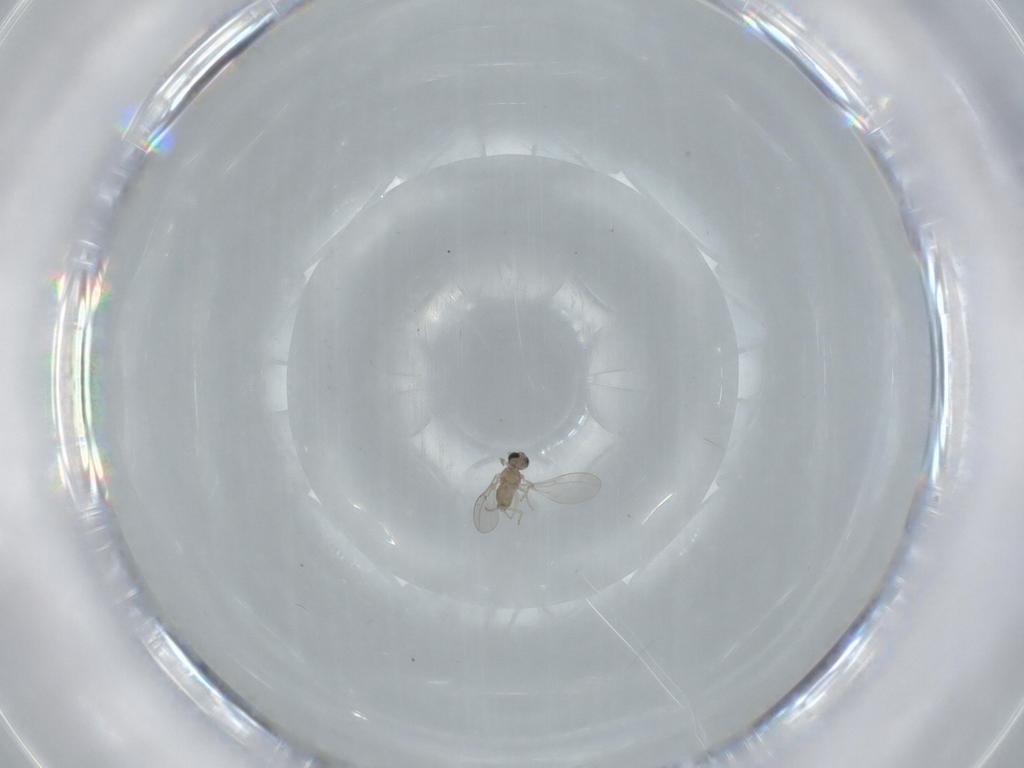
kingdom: Animalia
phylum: Arthropoda
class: Insecta
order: Diptera
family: Cecidomyiidae
